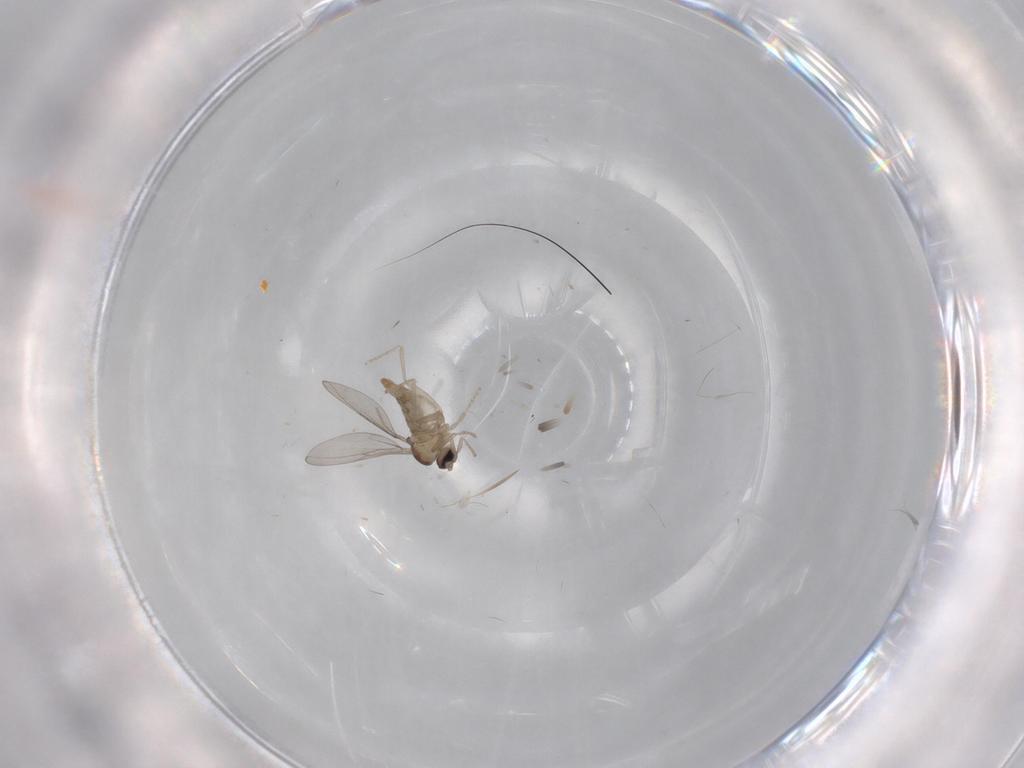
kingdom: Animalia
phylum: Arthropoda
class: Insecta
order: Diptera
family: Cecidomyiidae
